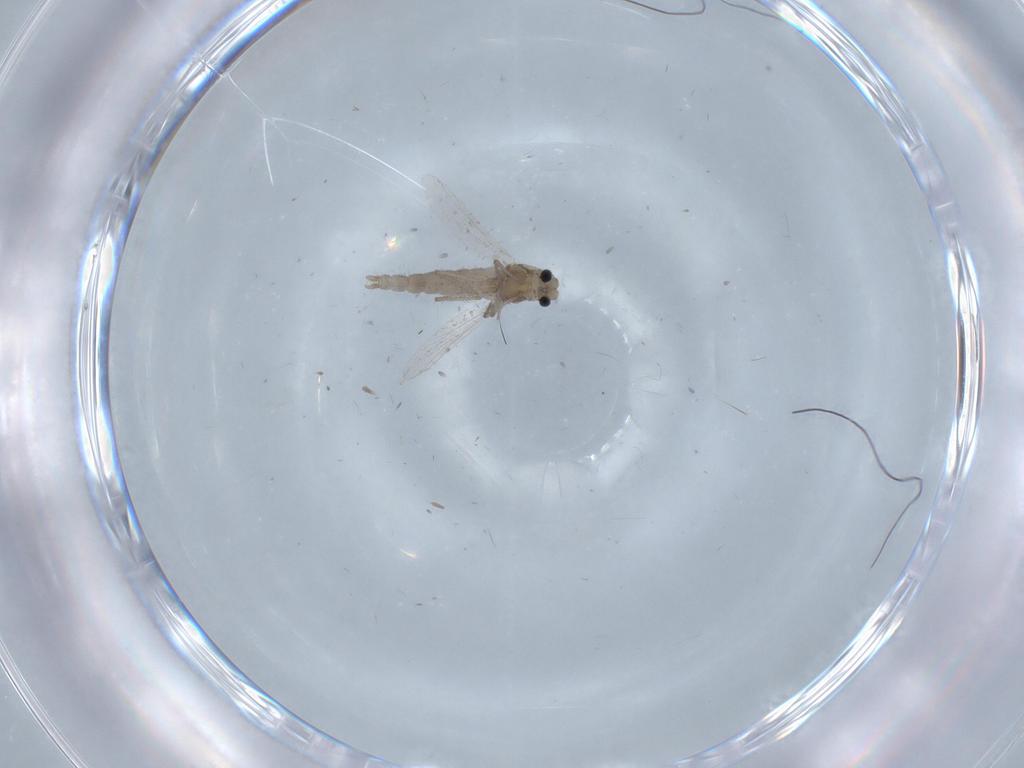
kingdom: Animalia
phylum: Arthropoda
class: Insecta
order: Diptera
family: Chironomidae
